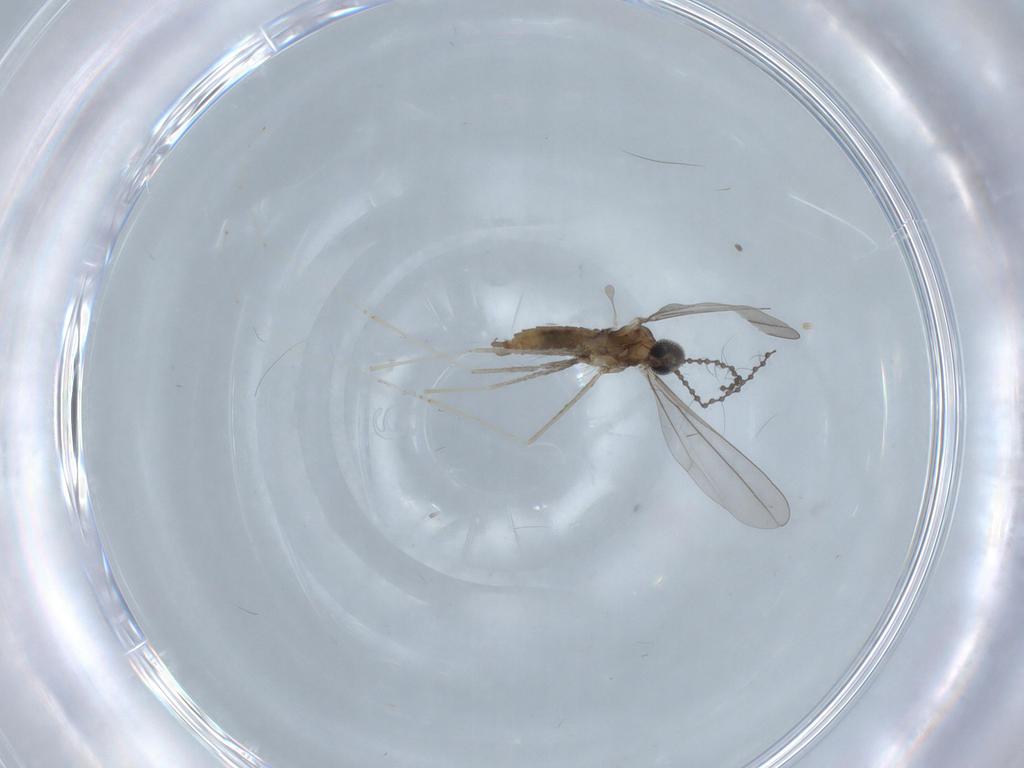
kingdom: Animalia
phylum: Arthropoda
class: Insecta
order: Diptera
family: Cecidomyiidae
